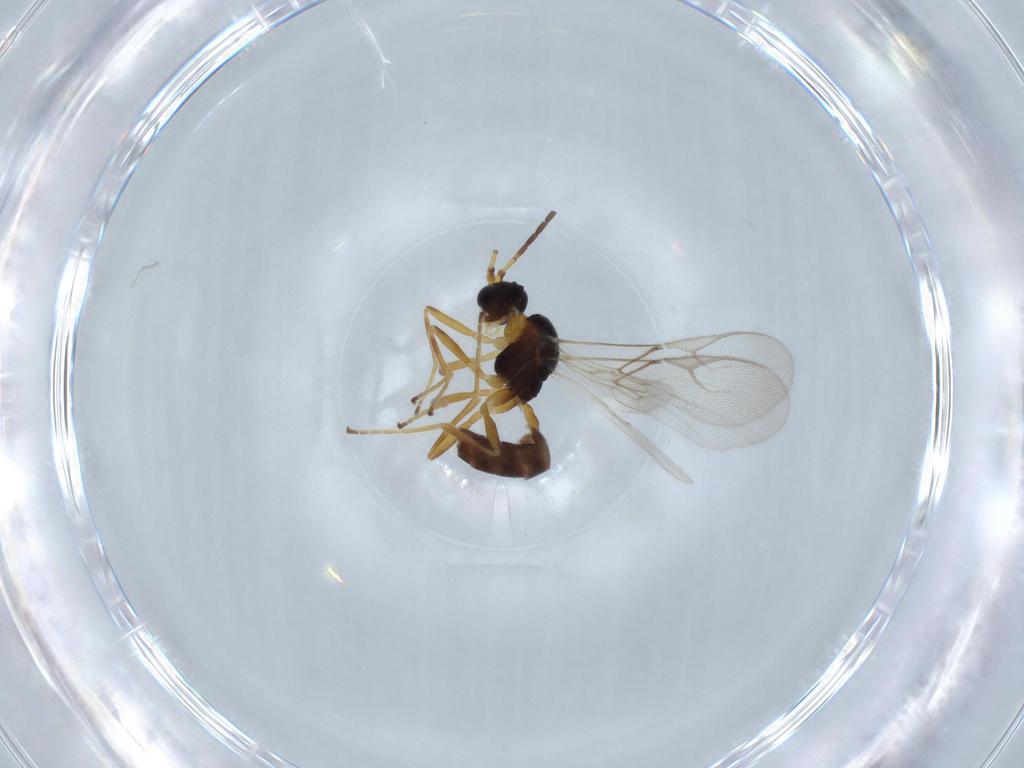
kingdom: Animalia
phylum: Arthropoda
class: Insecta
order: Hymenoptera
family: Braconidae
